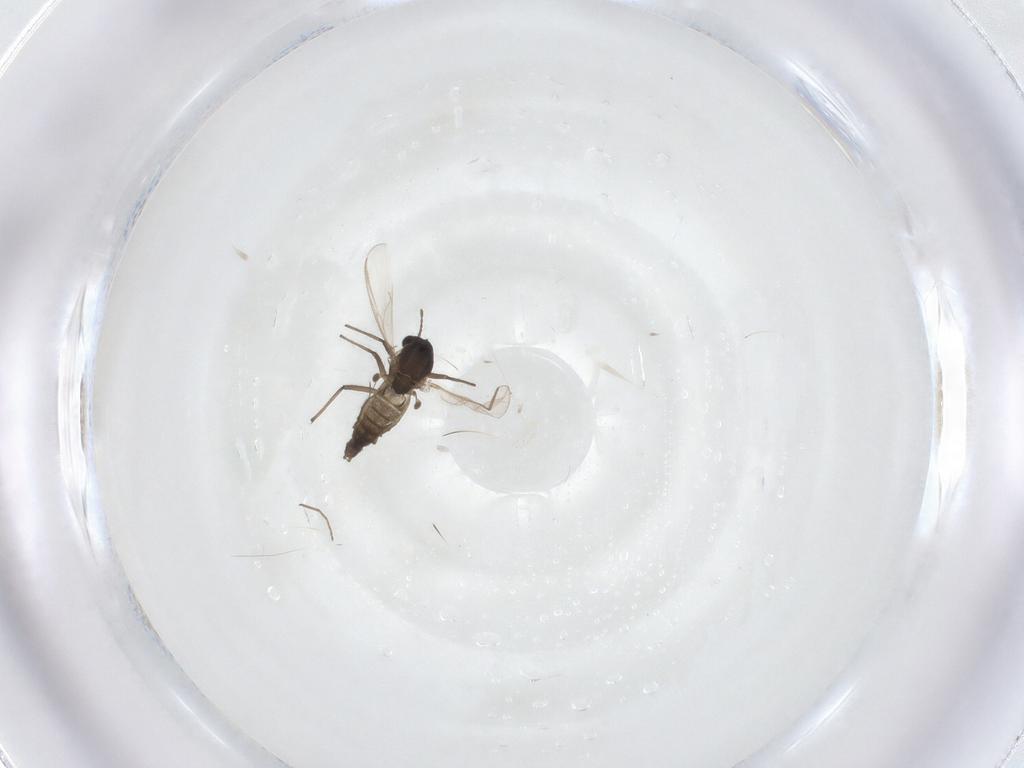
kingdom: Animalia
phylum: Arthropoda
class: Insecta
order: Diptera
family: Chironomidae
